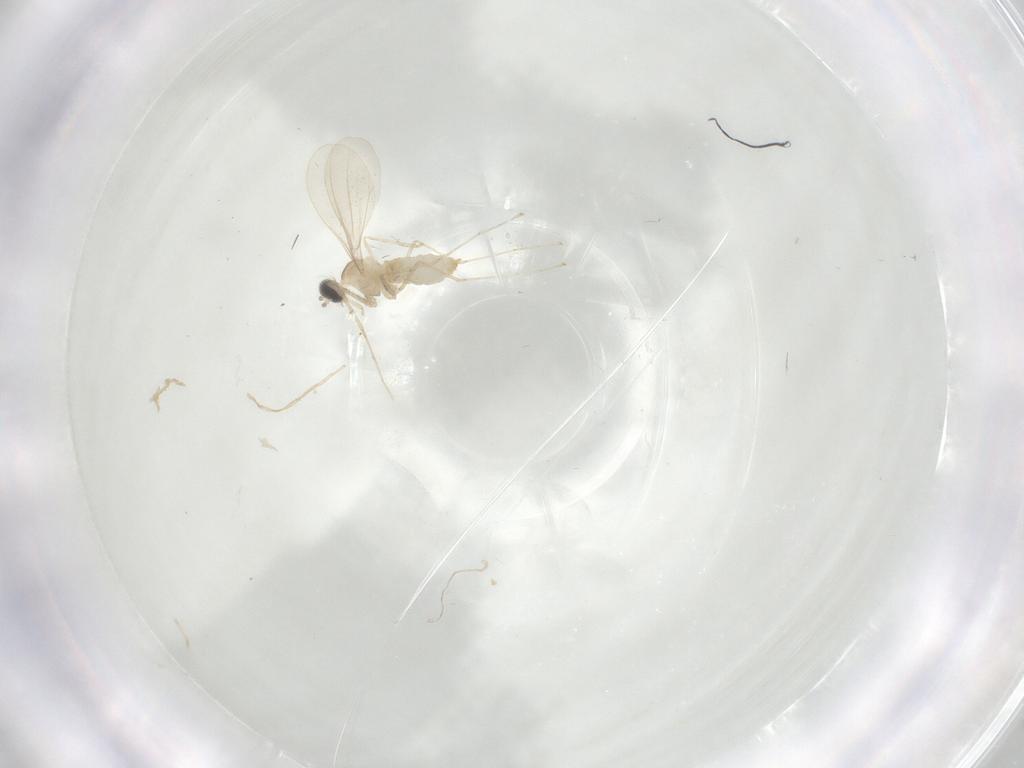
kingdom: Animalia
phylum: Arthropoda
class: Insecta
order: Diptera
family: Cecidomyiidae
